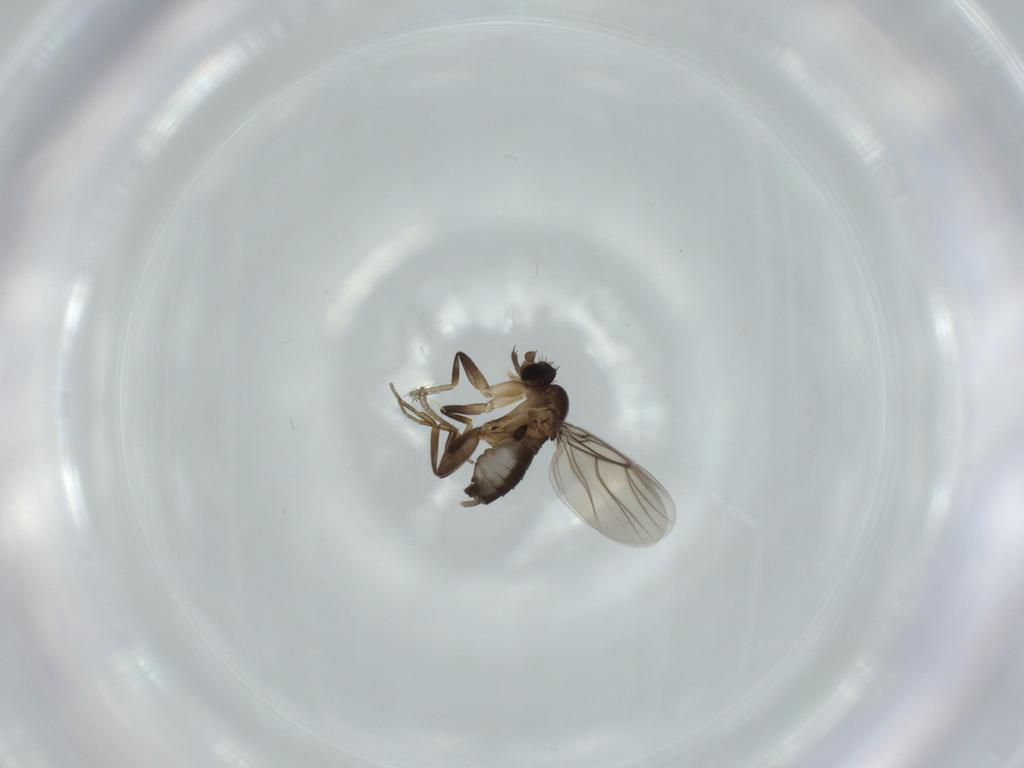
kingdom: Animalia
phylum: Arthropoda
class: Insecta
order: Diptera
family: Phoridae
